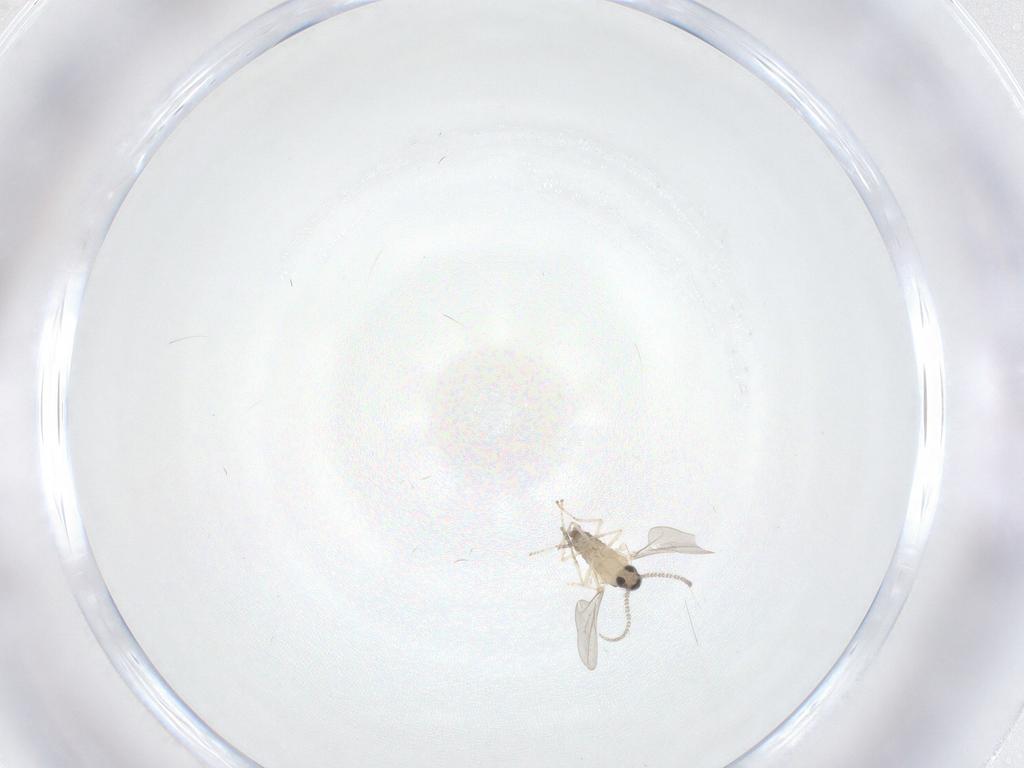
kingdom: Animalia
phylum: Arthropoda
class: Insecta
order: Diptera
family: Cecidomyiidae
